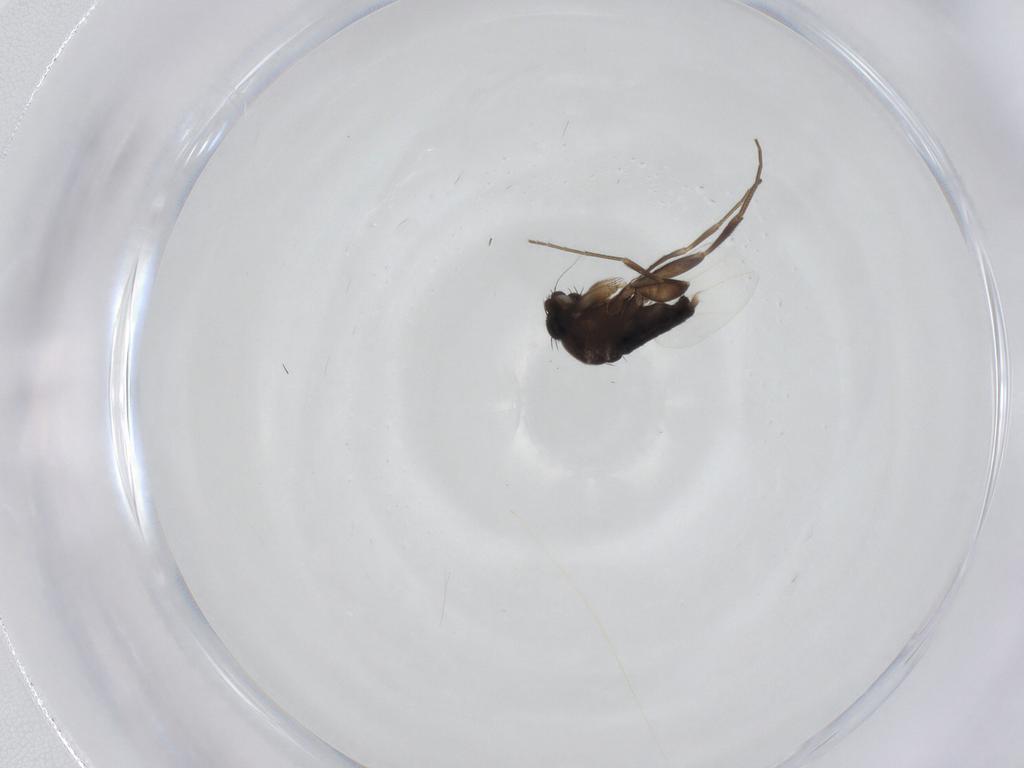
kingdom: Animalia
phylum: Arthropoda
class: Insecta
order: Diptera
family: Phoridae
